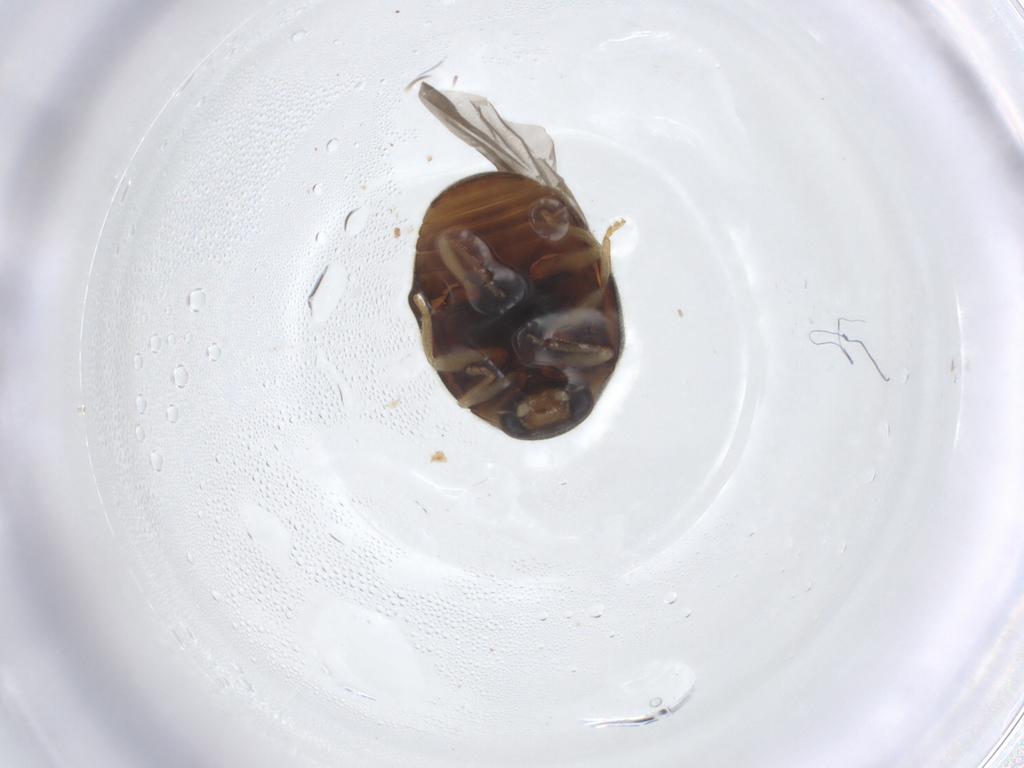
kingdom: Animalia
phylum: Arthropoda
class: Insecta
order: Coleoptera
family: Coccinellidae
